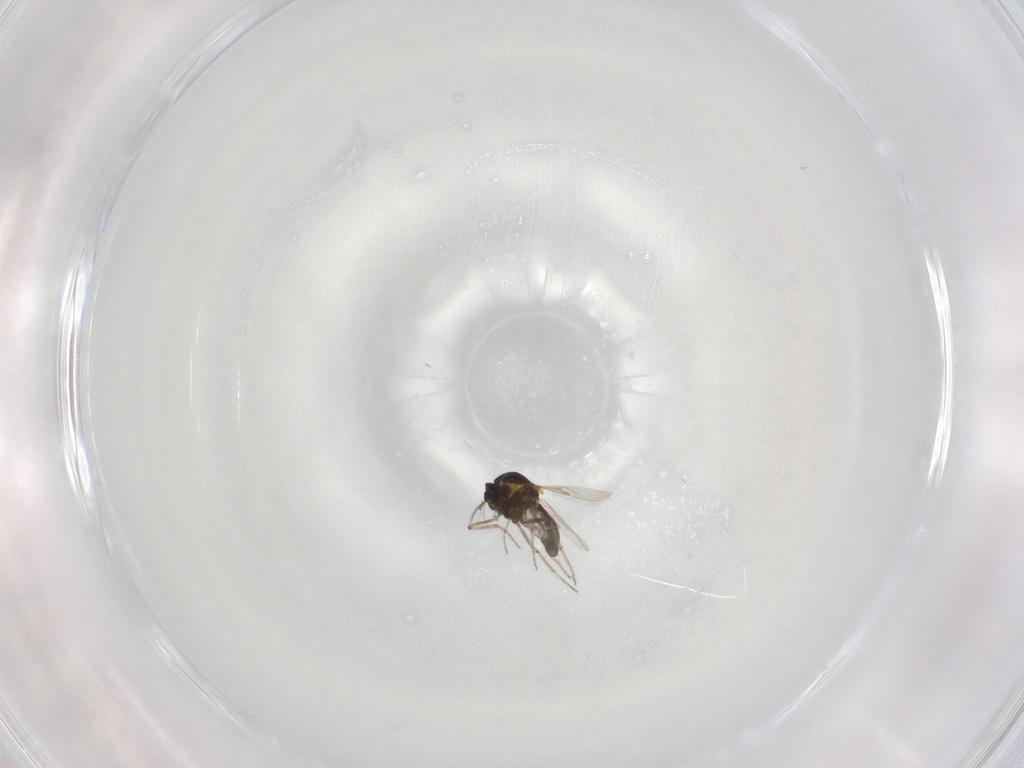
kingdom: Animalia
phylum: Arthropoda
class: Insecta
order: Diptera
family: Ceratopogonidae
